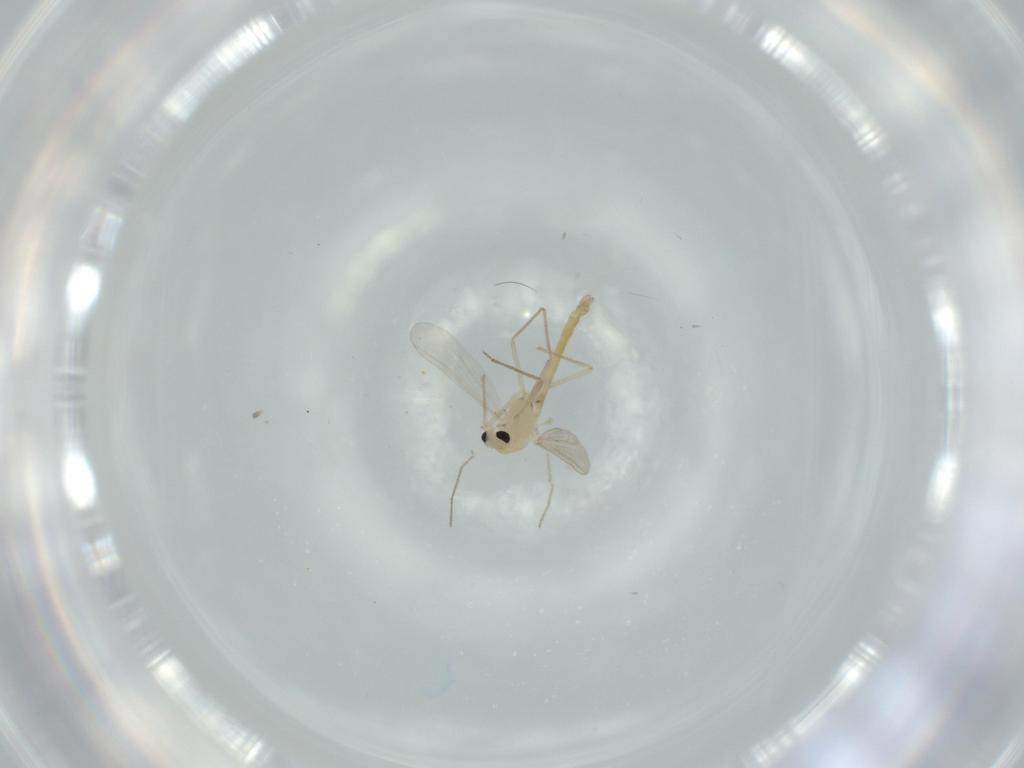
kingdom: Animalia
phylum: Arthropoda
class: Insecta
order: Diptera
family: Chironomidae
